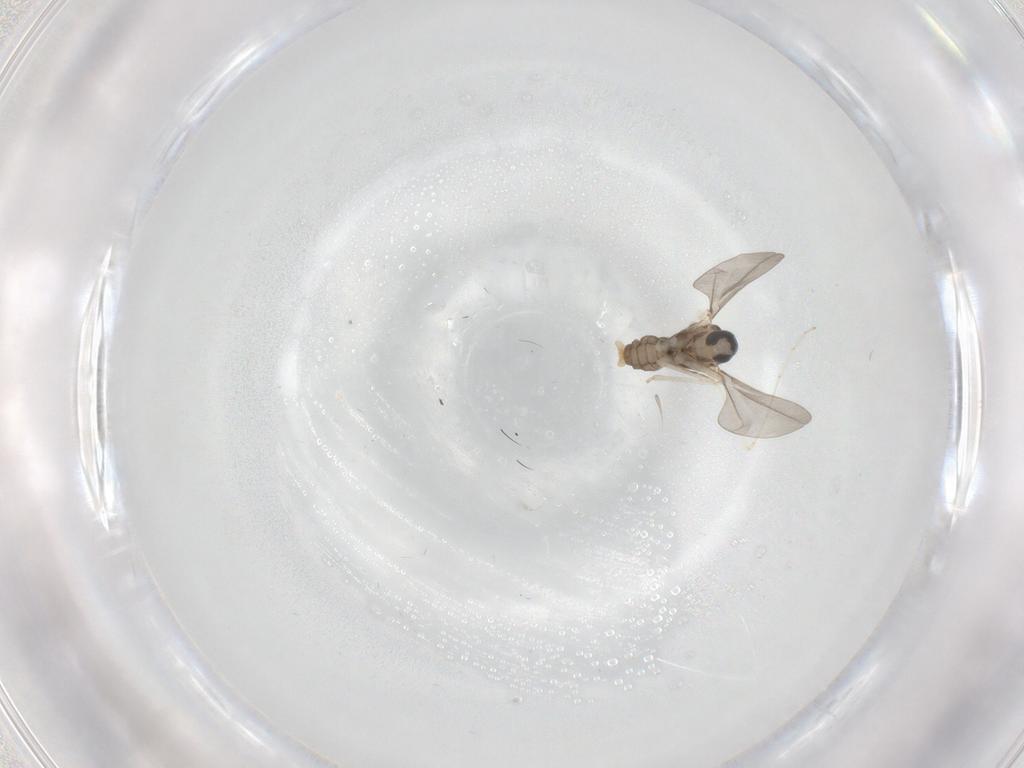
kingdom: Animalia
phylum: Arthropoda
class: Insecta
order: Diptera
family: Cecidomyiidae
